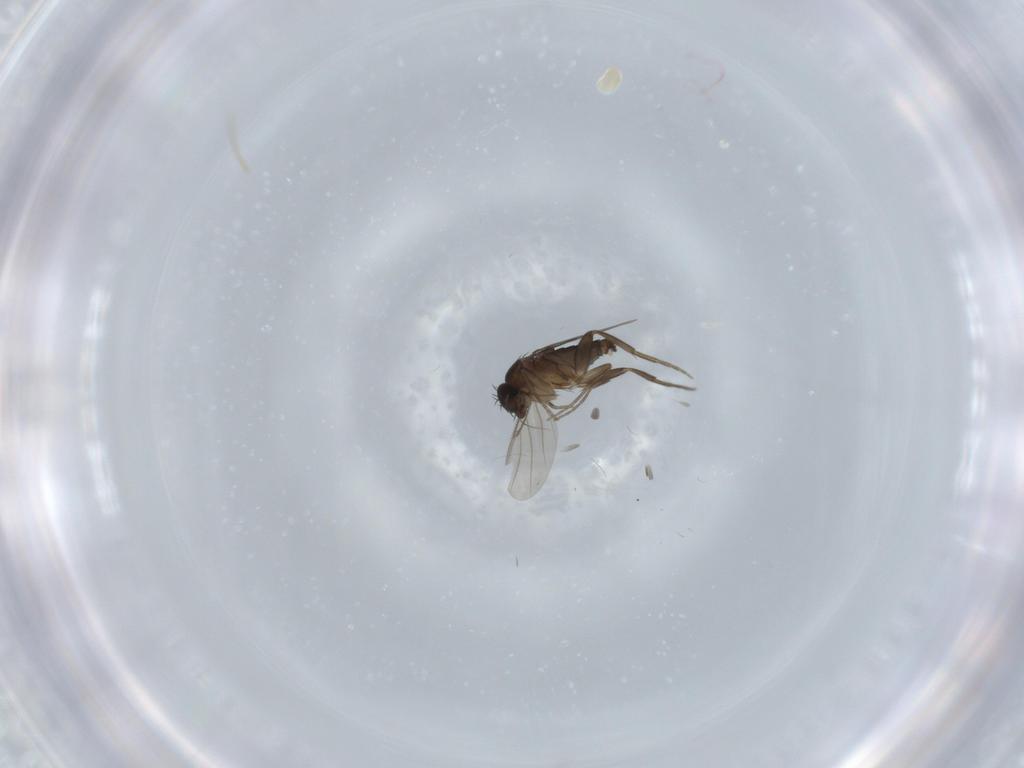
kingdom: Animalia
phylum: Arthropoda
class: Insecta
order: Diptera
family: Phoridae
